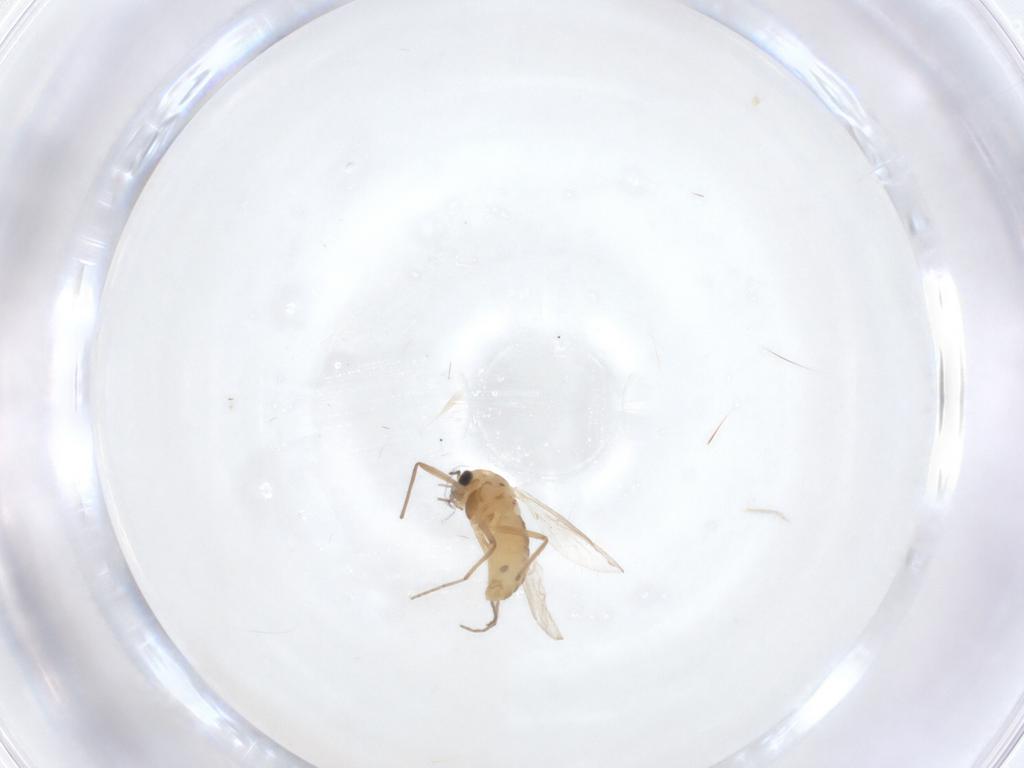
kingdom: Animalia
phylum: Arthropoda
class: Insecta
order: Diptera
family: Chironomidae
